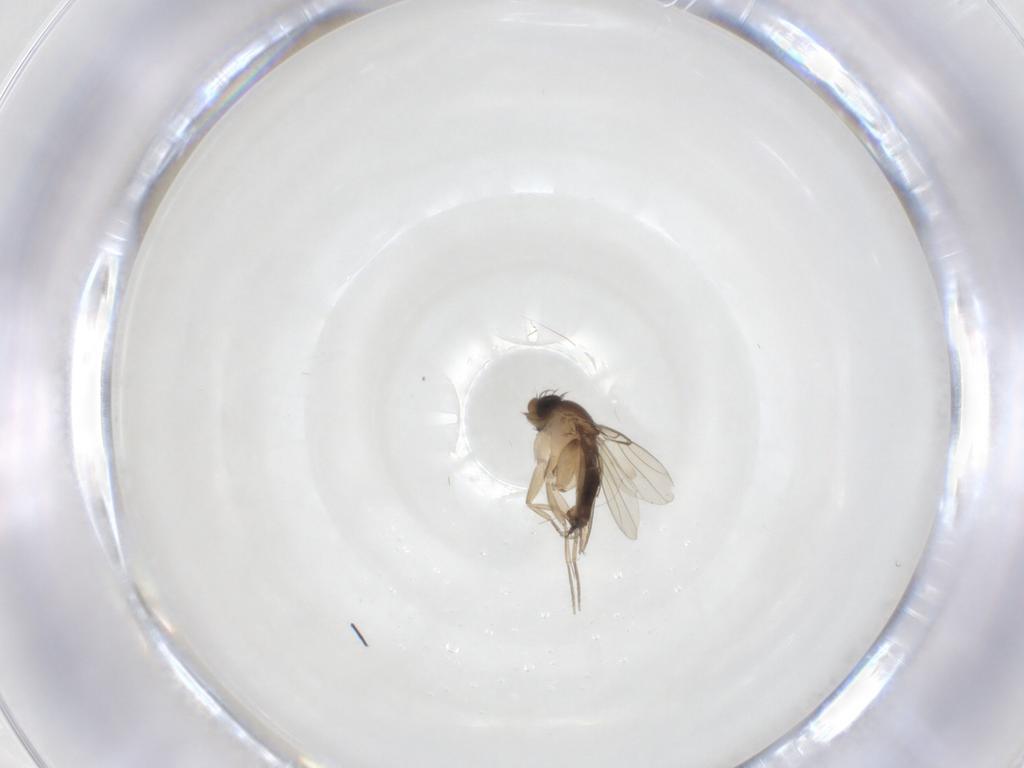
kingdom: Animalia
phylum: Arthropoda
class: Insecta
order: Diptera
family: Phoridae
